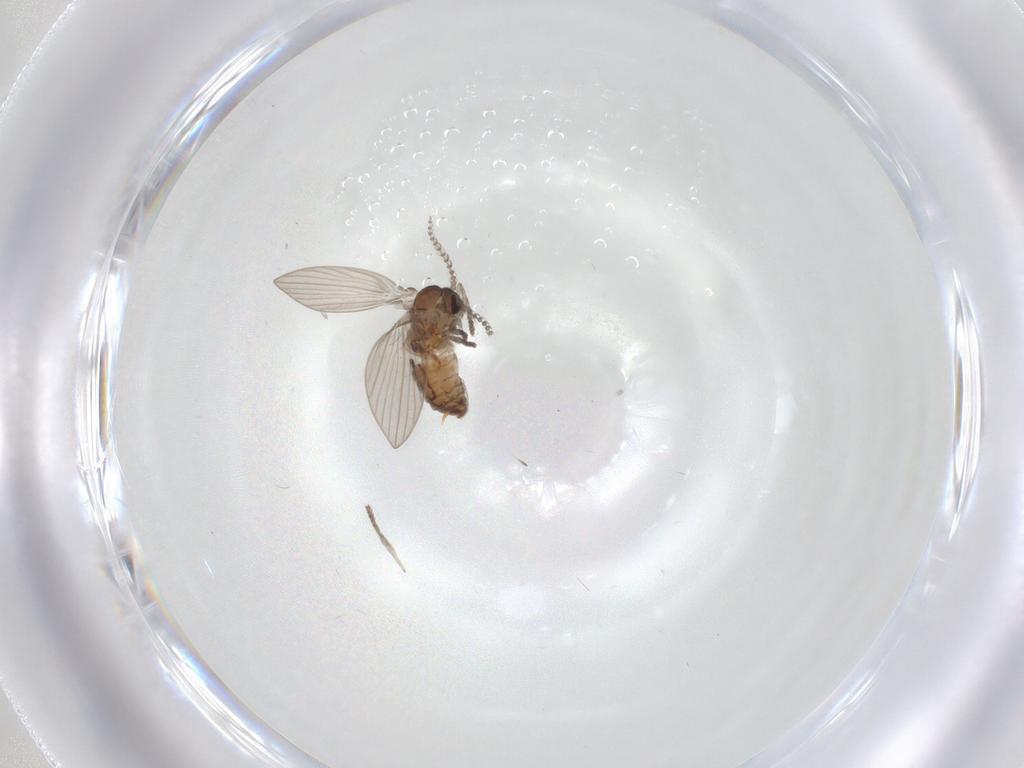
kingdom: Animalia
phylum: Arthropoda
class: Insecta
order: Diptera
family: Psychodidae
